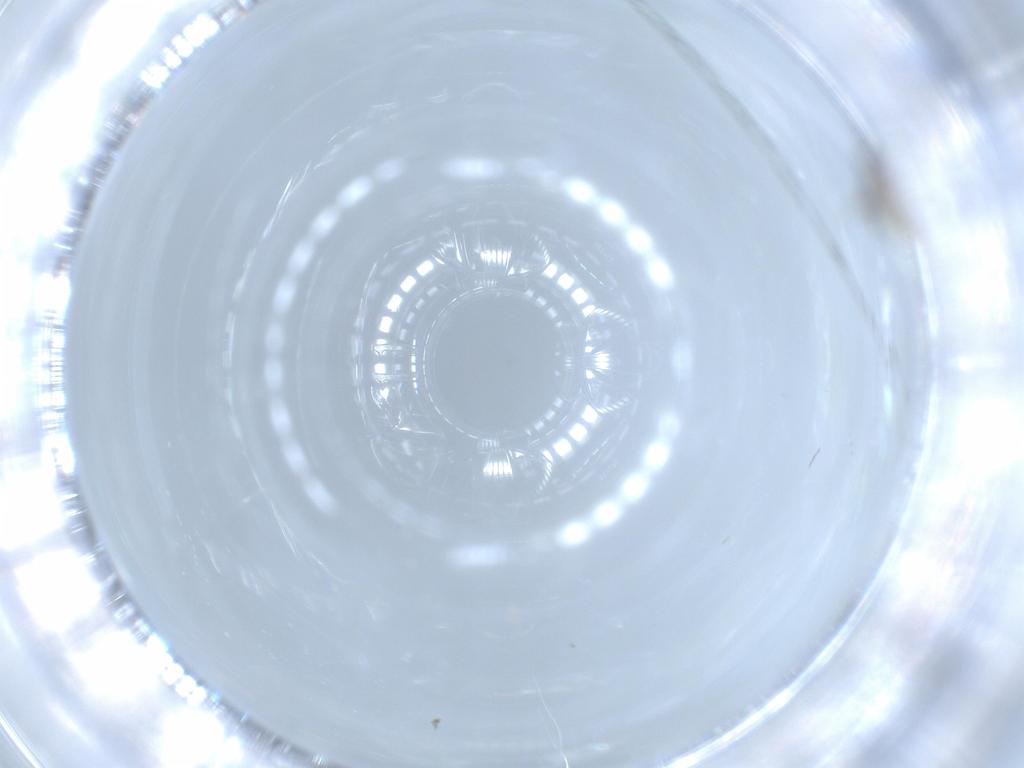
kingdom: Animalia
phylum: Arthropoda
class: Insecta
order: Diptera
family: Cecidomyiidae
